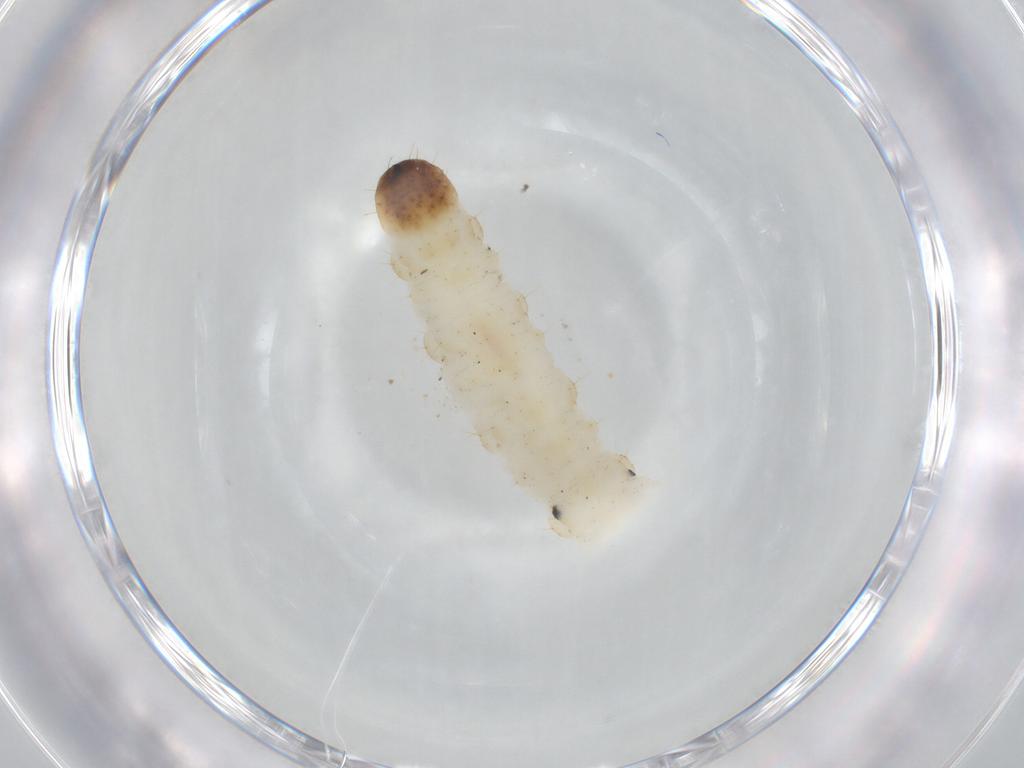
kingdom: Animalia
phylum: Arthropoda
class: Insecta
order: Coleoptera
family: Chrysomelidae
